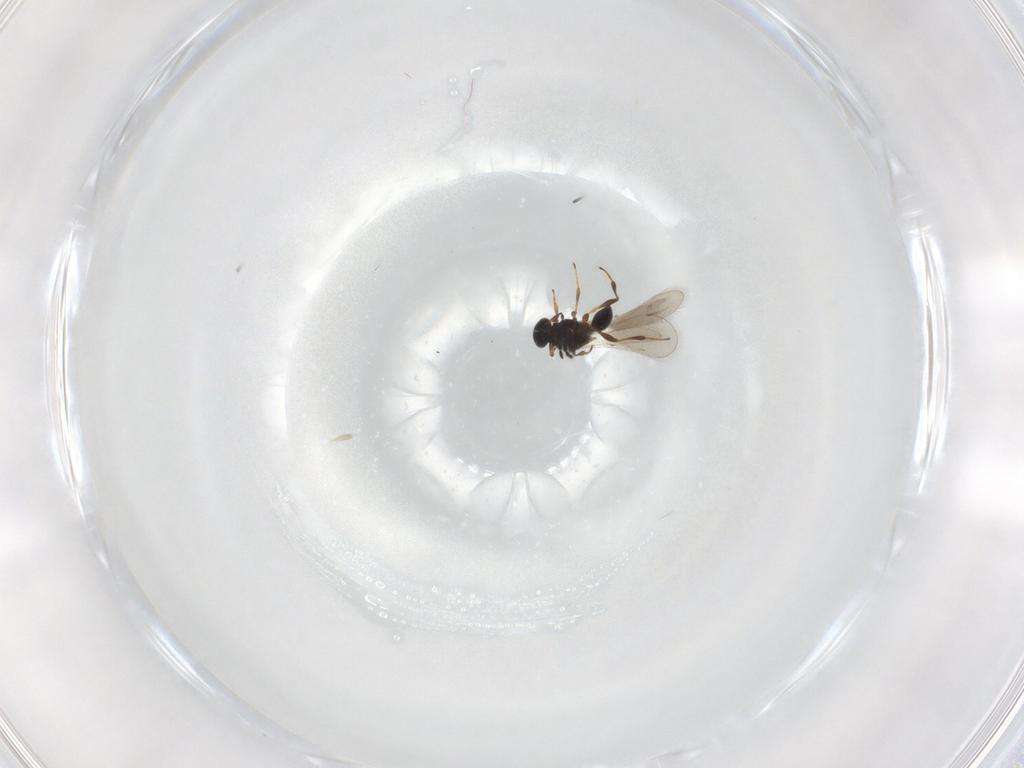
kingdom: Animalia
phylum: Arthropoda
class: Insecta
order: Hymenoptera
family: Platygastridae
